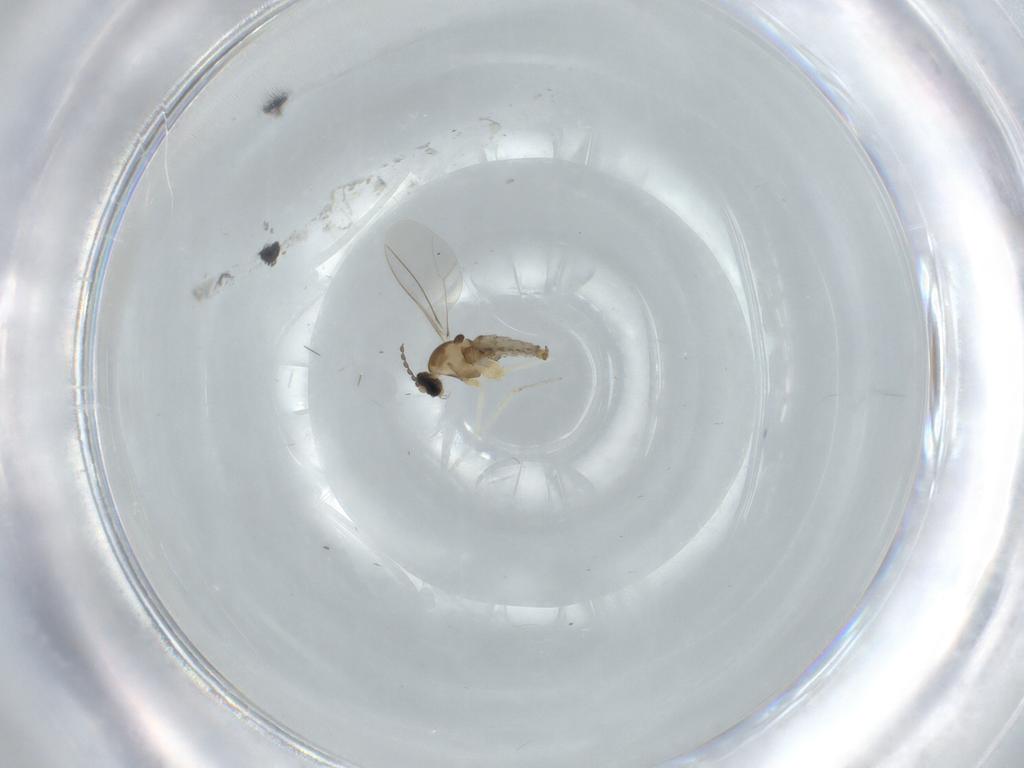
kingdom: Animalia
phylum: Arthropoda
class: Insecta
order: Diptera
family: Cecidomyiidae
